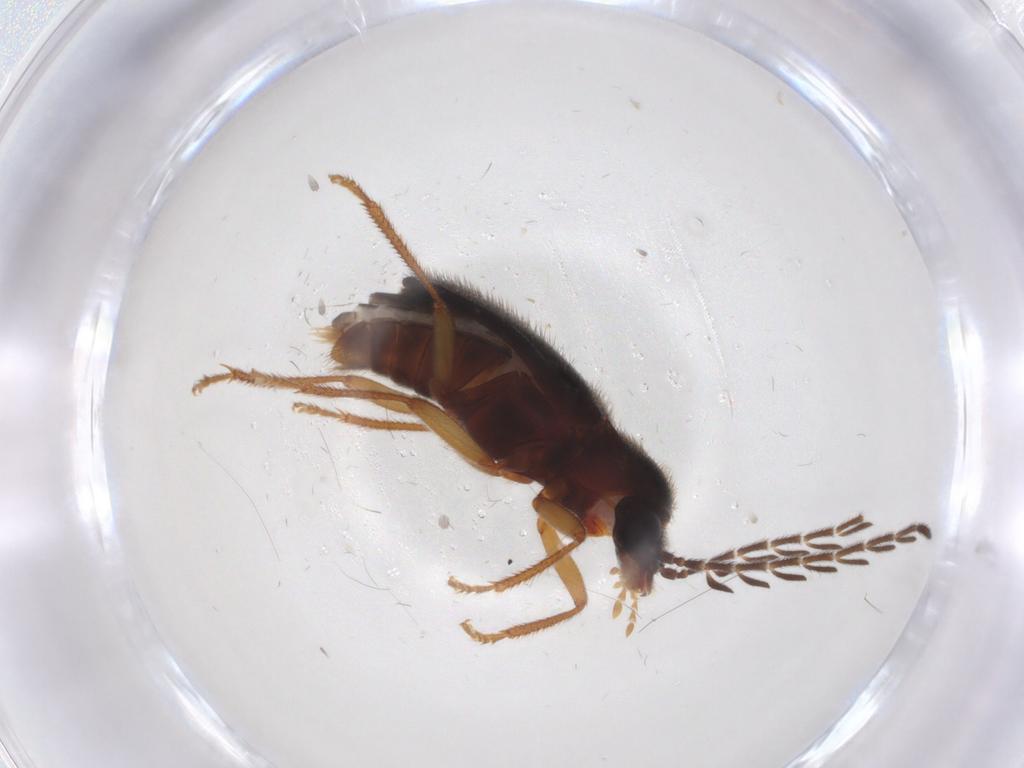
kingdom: Animalia
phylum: Arthropoda
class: Insecta
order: Coleoptera
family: Ptilodactylidae
